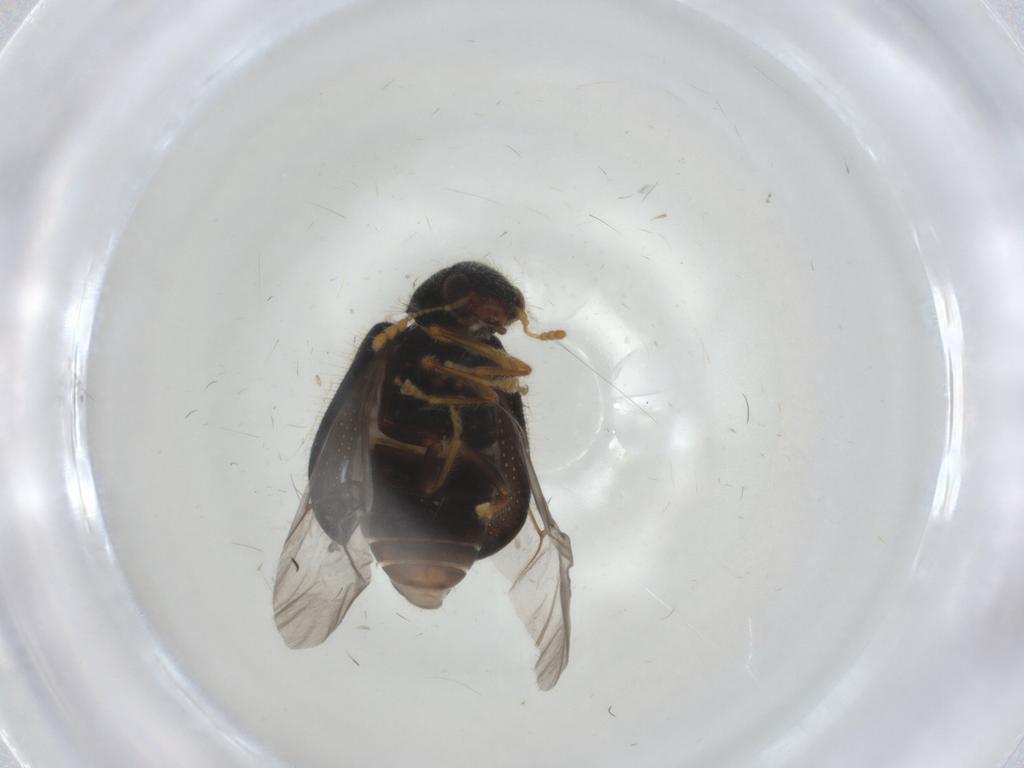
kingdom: Animalia
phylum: Arthropoda
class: Insecta
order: Coleoptera
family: Scraptiidae
